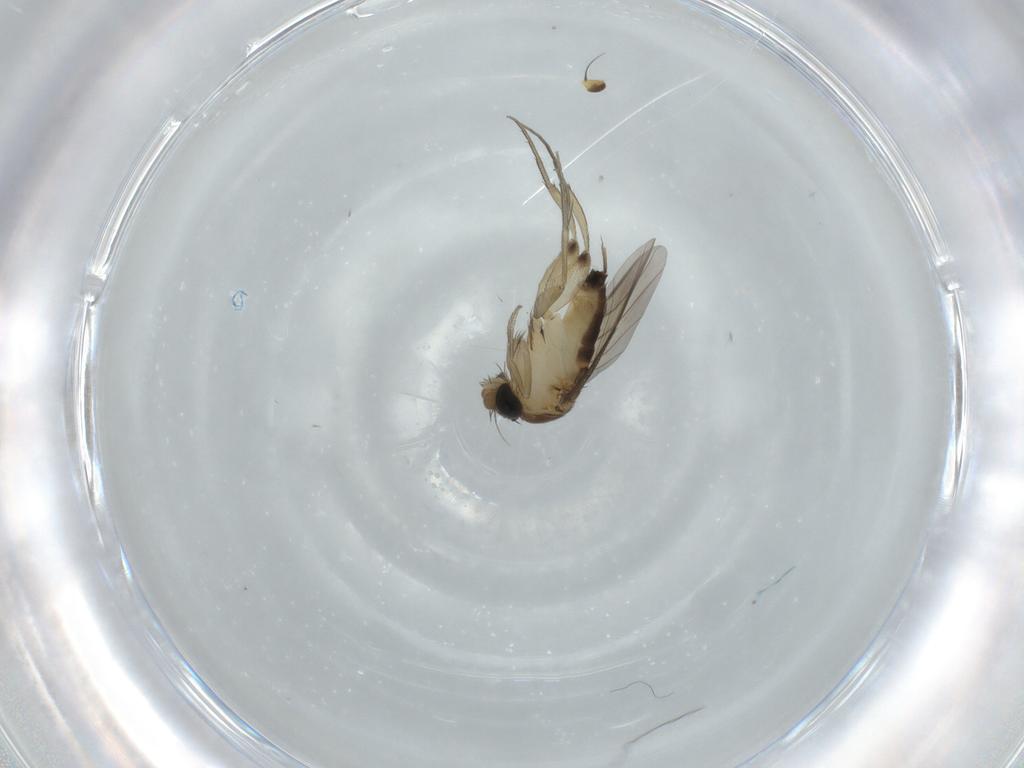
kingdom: Animalia
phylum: Arthropoda
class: Insecta
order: Diptera
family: Phoridae
